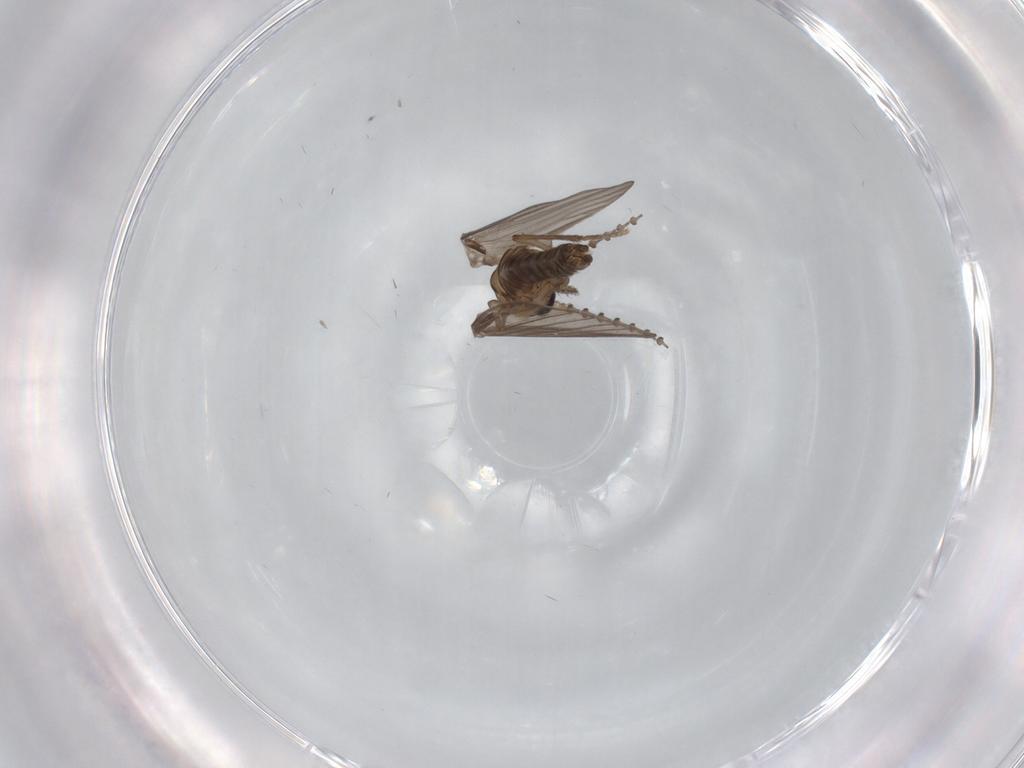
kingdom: Animalia
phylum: Arthropoda
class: Insecta
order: Diptera
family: Psychodidae
